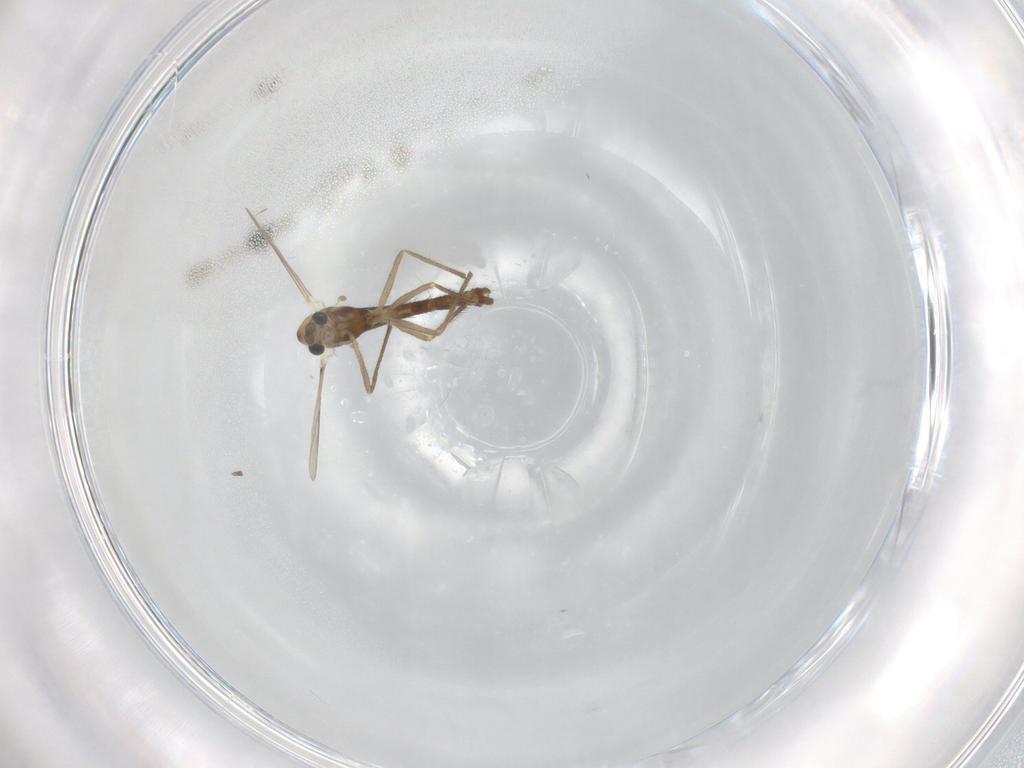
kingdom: Animalia
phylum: Arthropoda
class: Insecta
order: Diptera
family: Chironomidae
